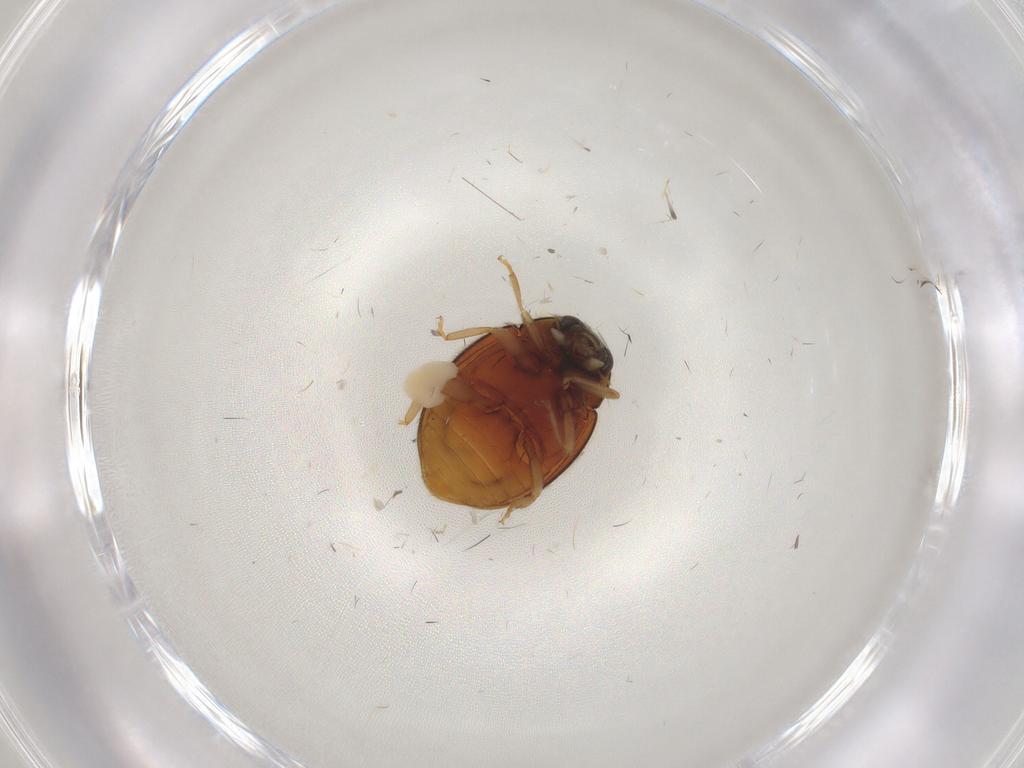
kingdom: Animalia
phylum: Arthropoda
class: Insecta
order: Coleoptera
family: Coccinellidae
